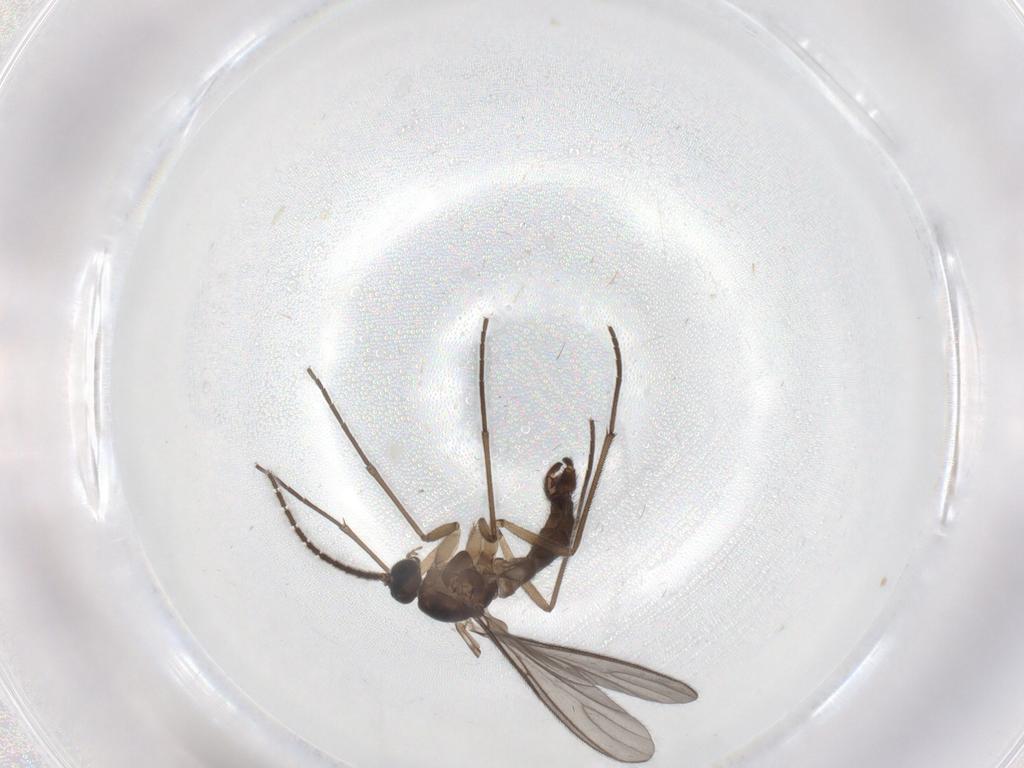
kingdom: Animalia
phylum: Arthropoda
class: Insecta
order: Diptera
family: Sciaridae
